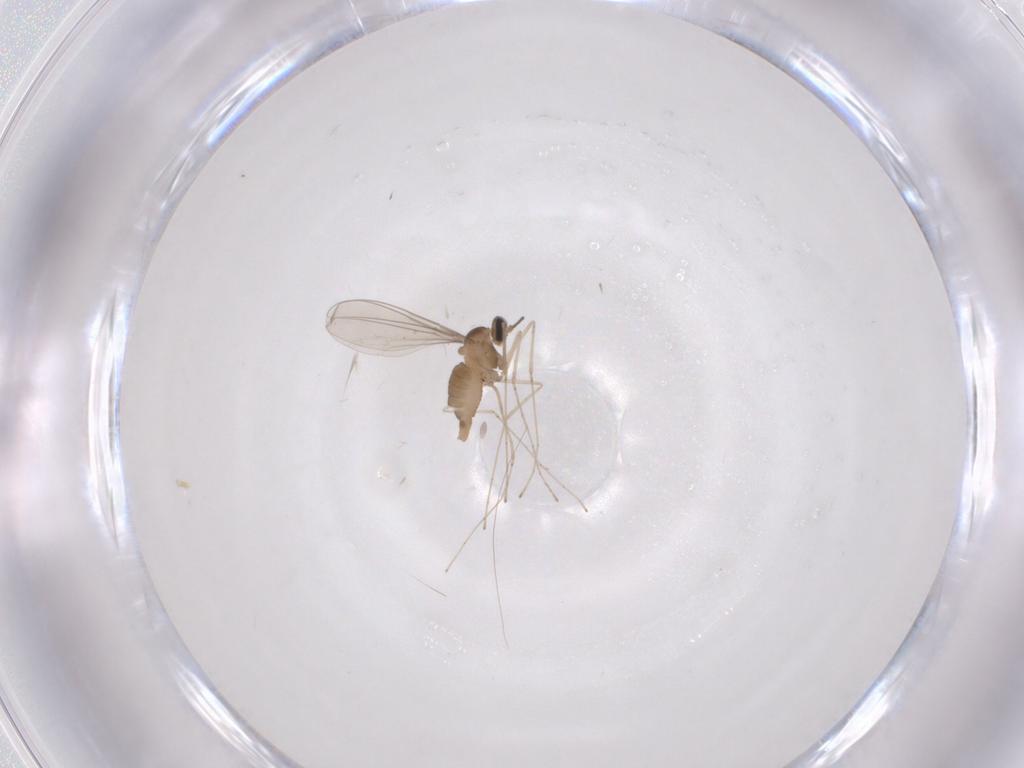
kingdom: Animalia
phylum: Arthropoda
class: Insecta
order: Diptera
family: Cecidomyiidae
